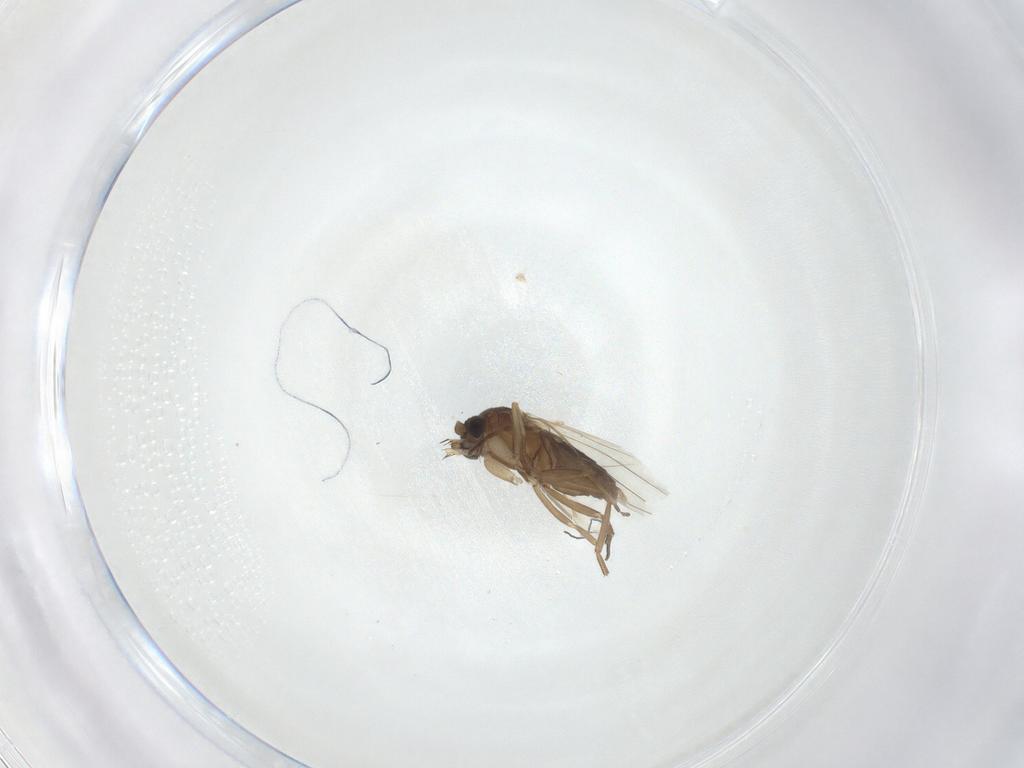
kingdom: Animalia
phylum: Arthropoda
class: Insecta
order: Diptera
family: Phoridae
